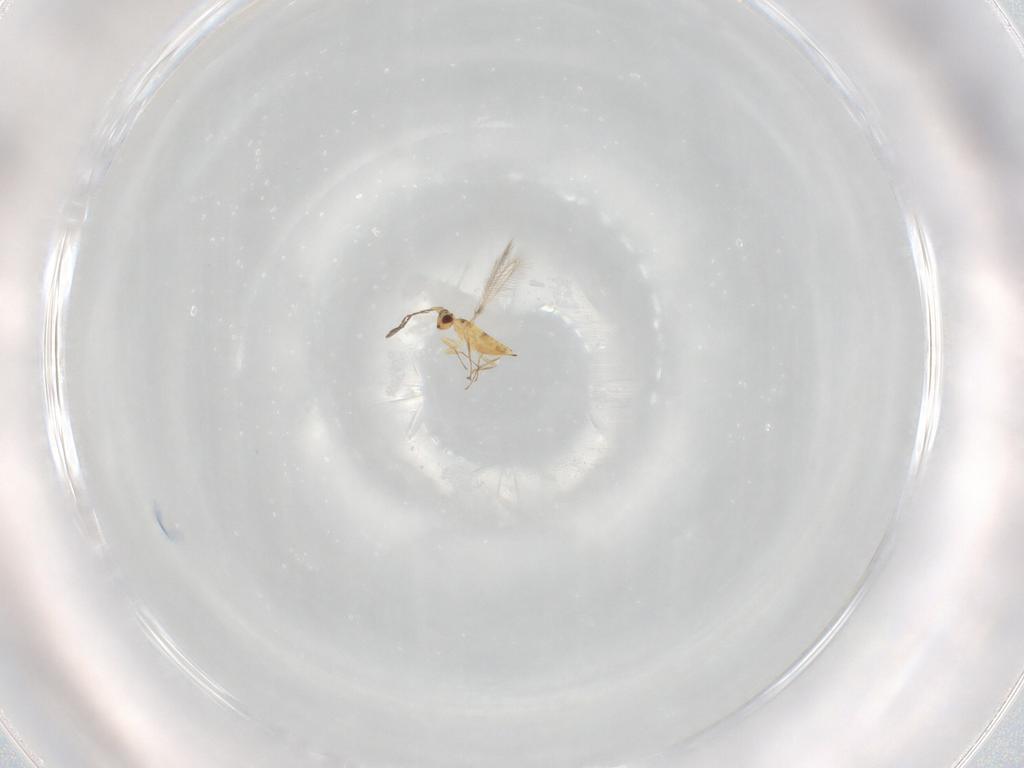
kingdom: Animalia
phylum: Arthropoda
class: Insecta
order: Hymenoptera
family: Mymaridae
